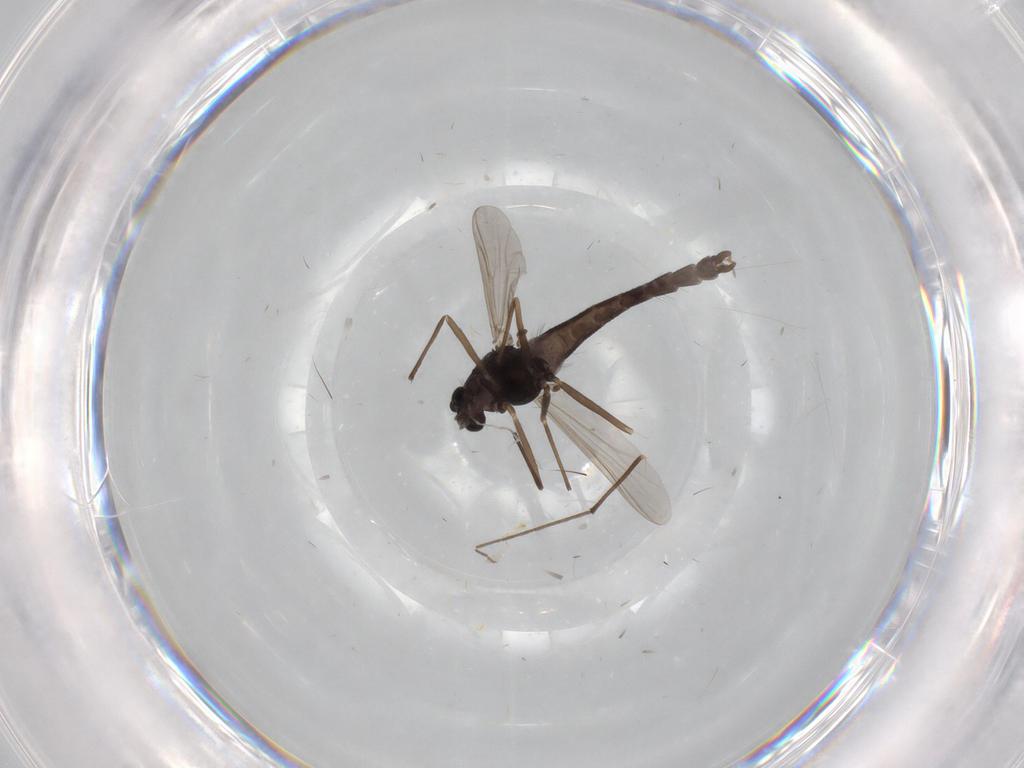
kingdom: Animalia
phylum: Arthropoda
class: Insecta
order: Diptera
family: Chironomidae
